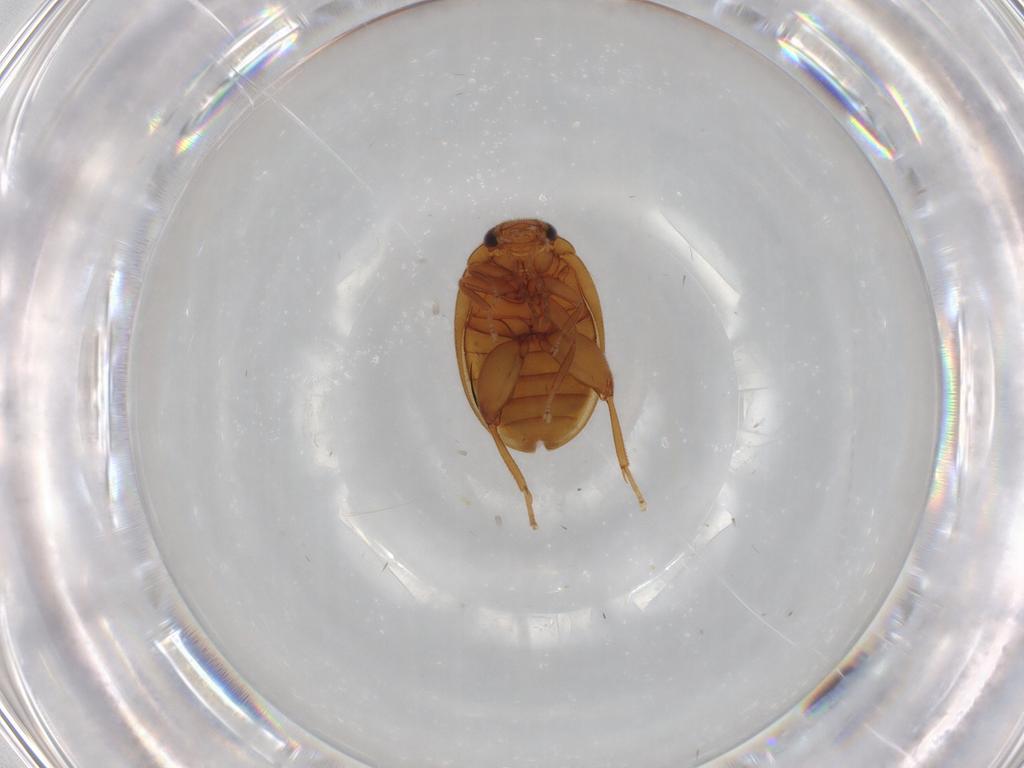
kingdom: Animalia
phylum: Arthropoda
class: Insecta
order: Coleoptera
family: Scirtidae
